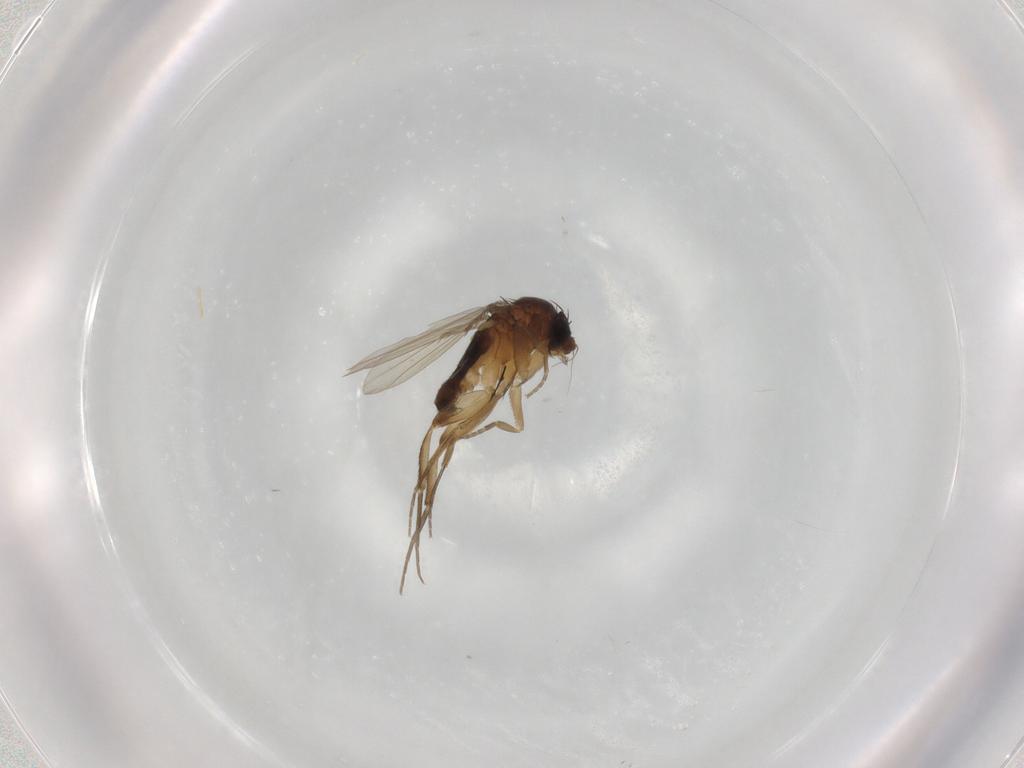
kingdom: Animalia
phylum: Arthropoda
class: Insecta
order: Diptera
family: Phoridae
